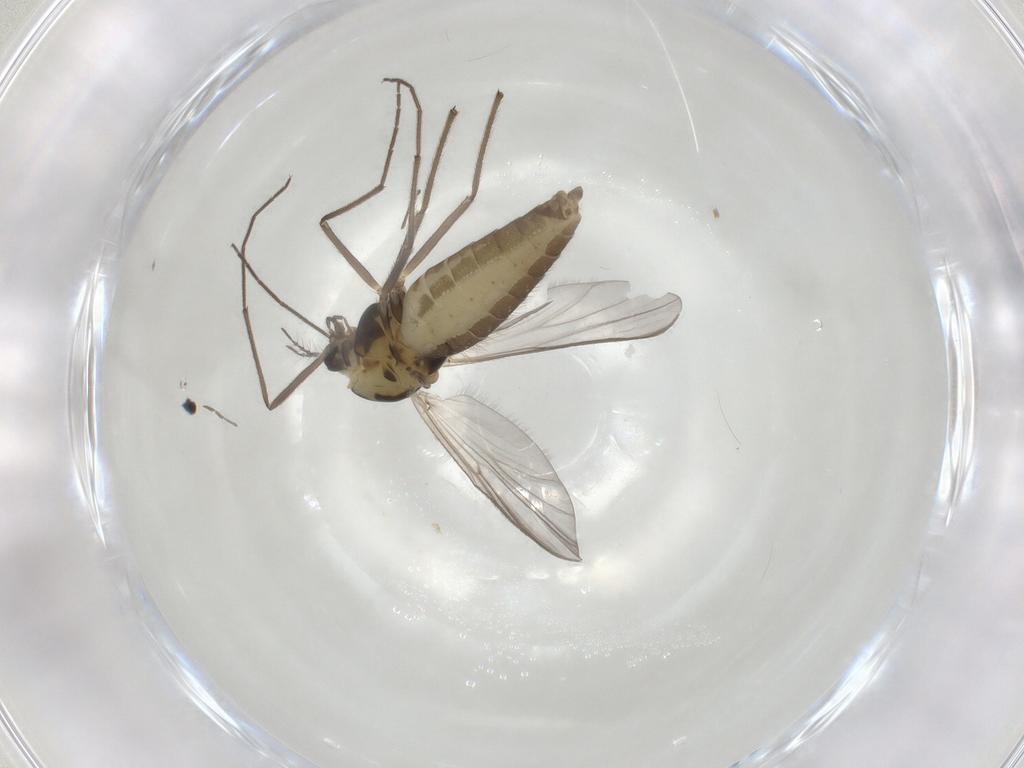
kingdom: Animalia
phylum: Arthropoda
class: Insecta
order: Diptera
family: Chironomidae
